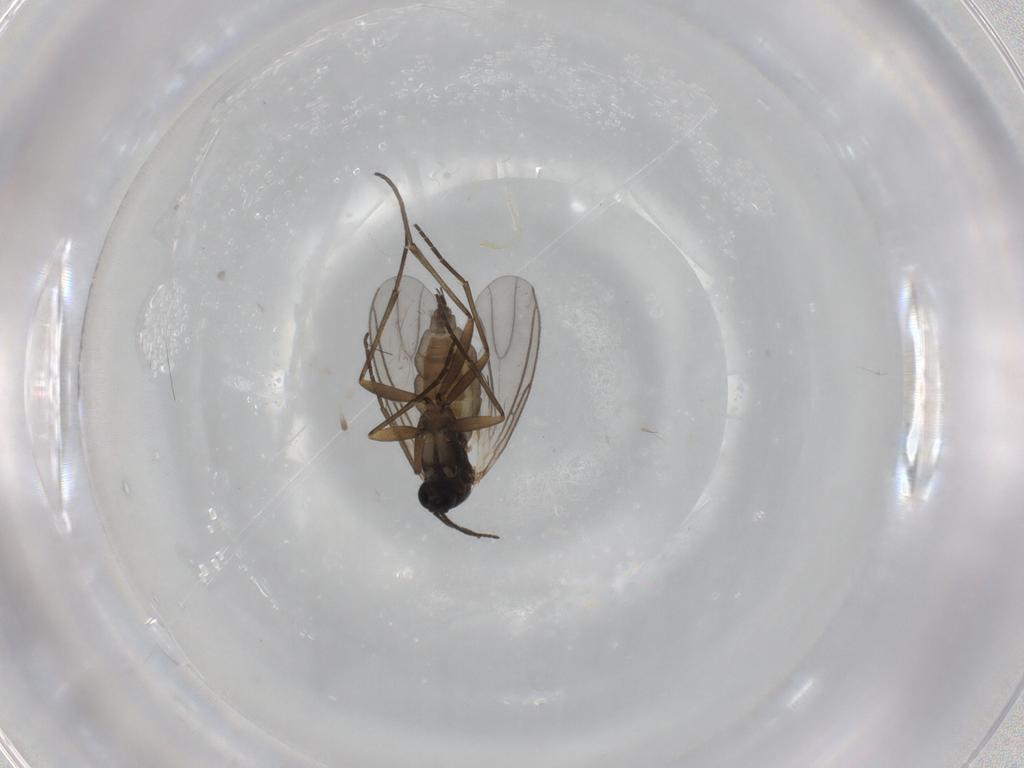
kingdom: Animalia
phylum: Arthropoda
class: Insecta
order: Diptera
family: Sciaridae
